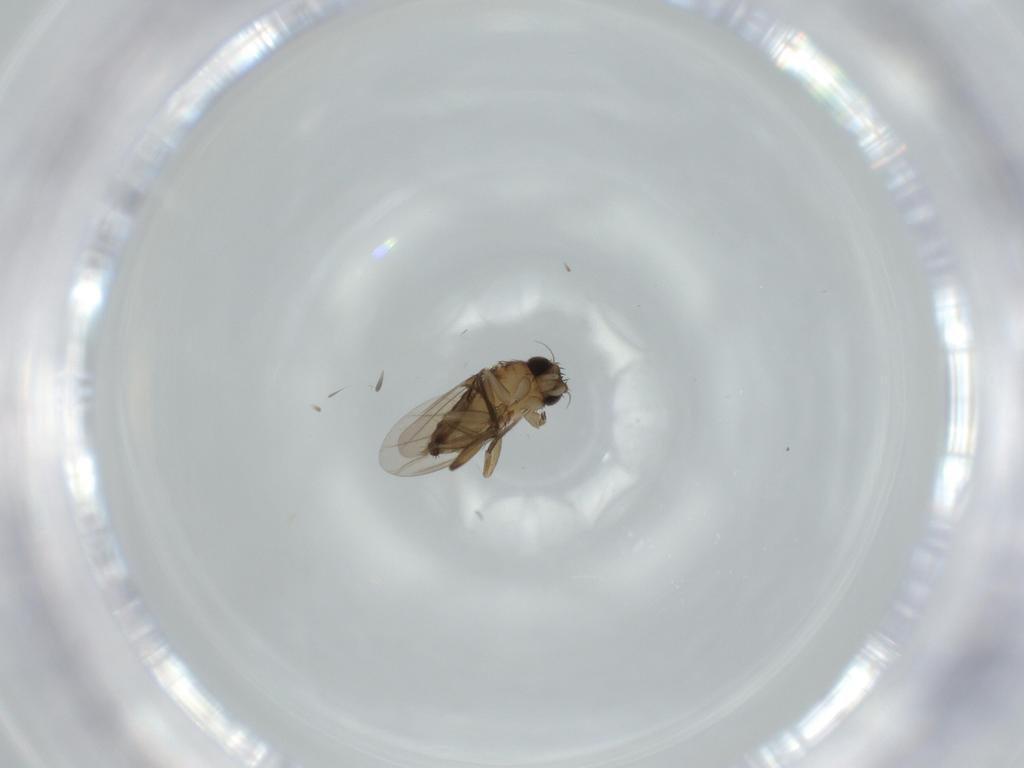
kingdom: Animalia
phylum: Arthropoda
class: Insecta
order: Diptera
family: Phoridae
